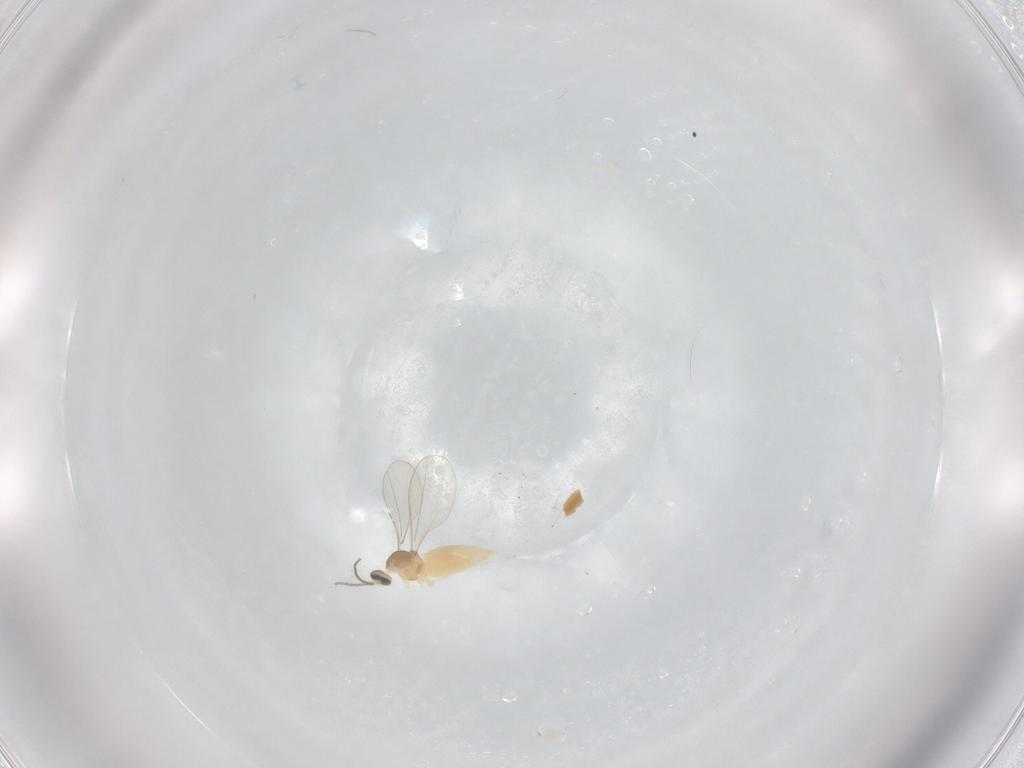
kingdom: Animalia
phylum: Arthropoda
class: Insecta
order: Diptera
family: Cecidomyiidae
